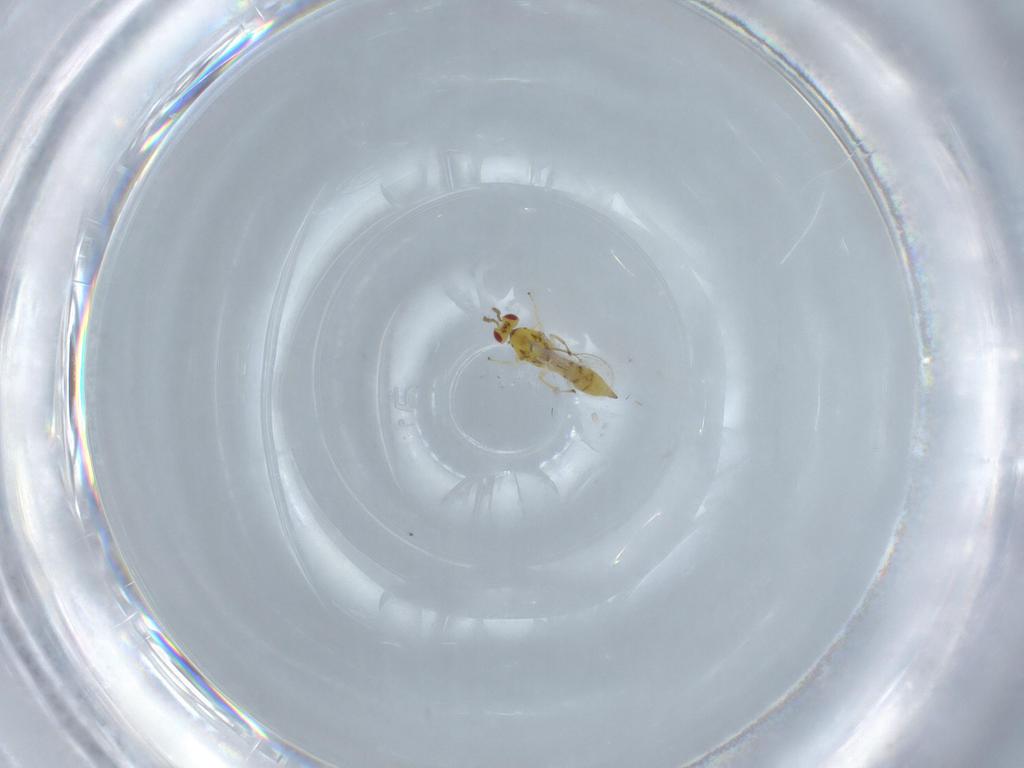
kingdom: Animalia
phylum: Arthropoda
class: Insecta
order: Hymenoptera
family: Eulophidae
